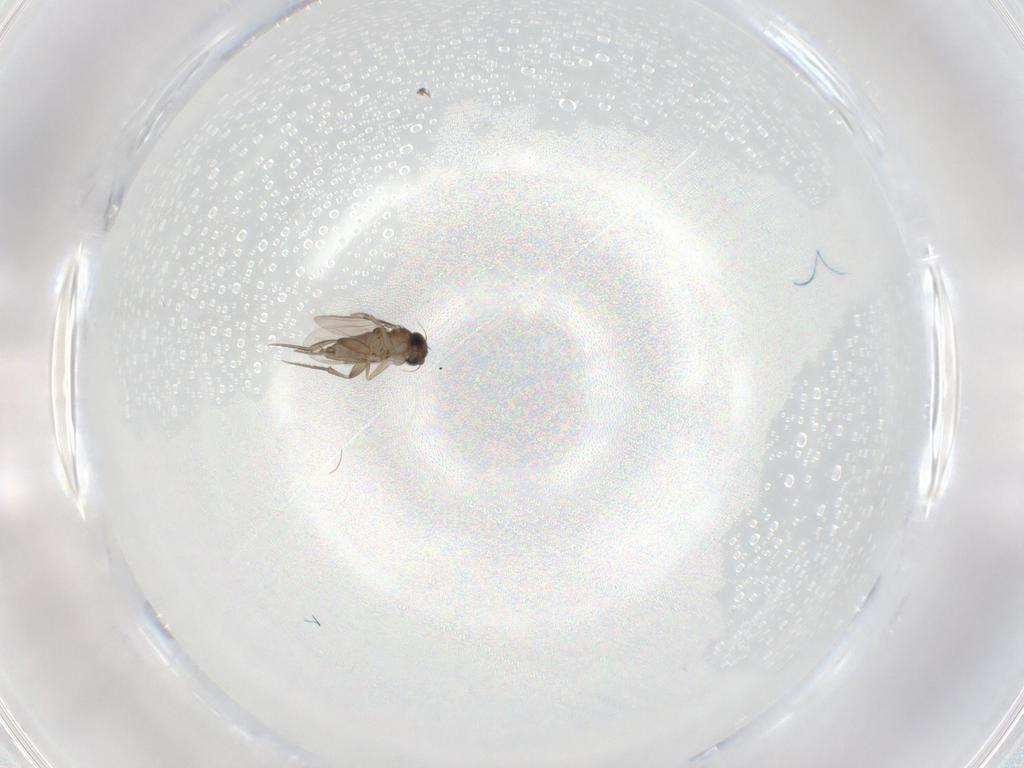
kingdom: Animalia
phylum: Arthropoda
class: Insecta
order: Diptera
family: Phoridae
